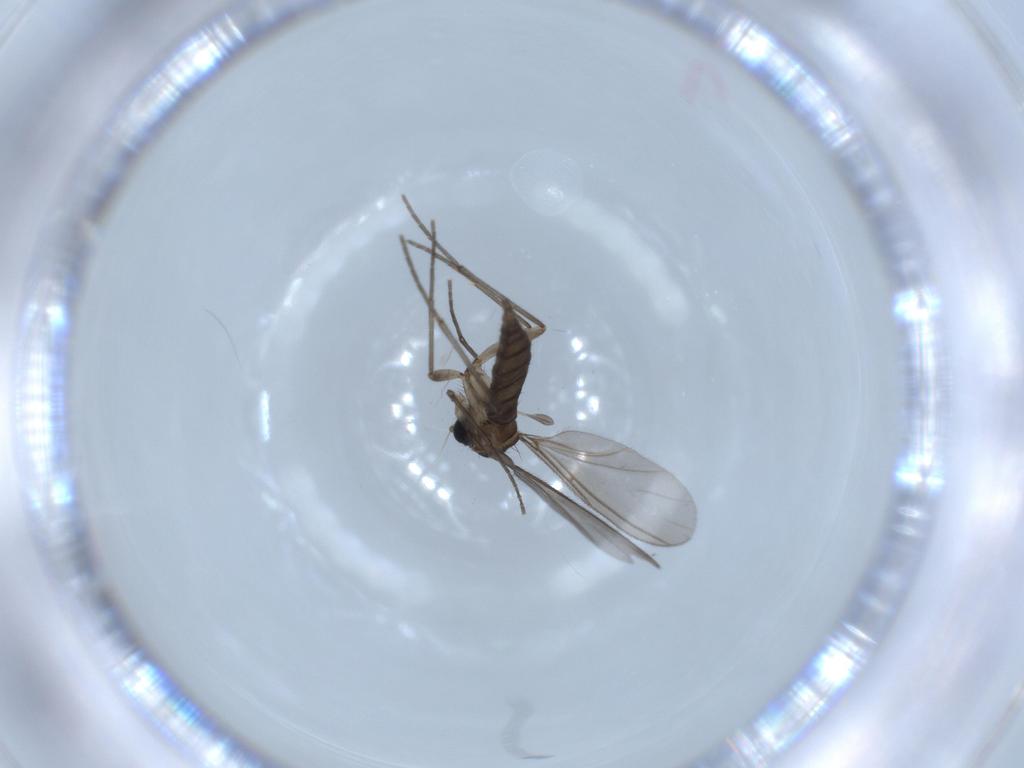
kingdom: Animalia
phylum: Arthropoda
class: Insecta
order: Diptera
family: Sciaridae
